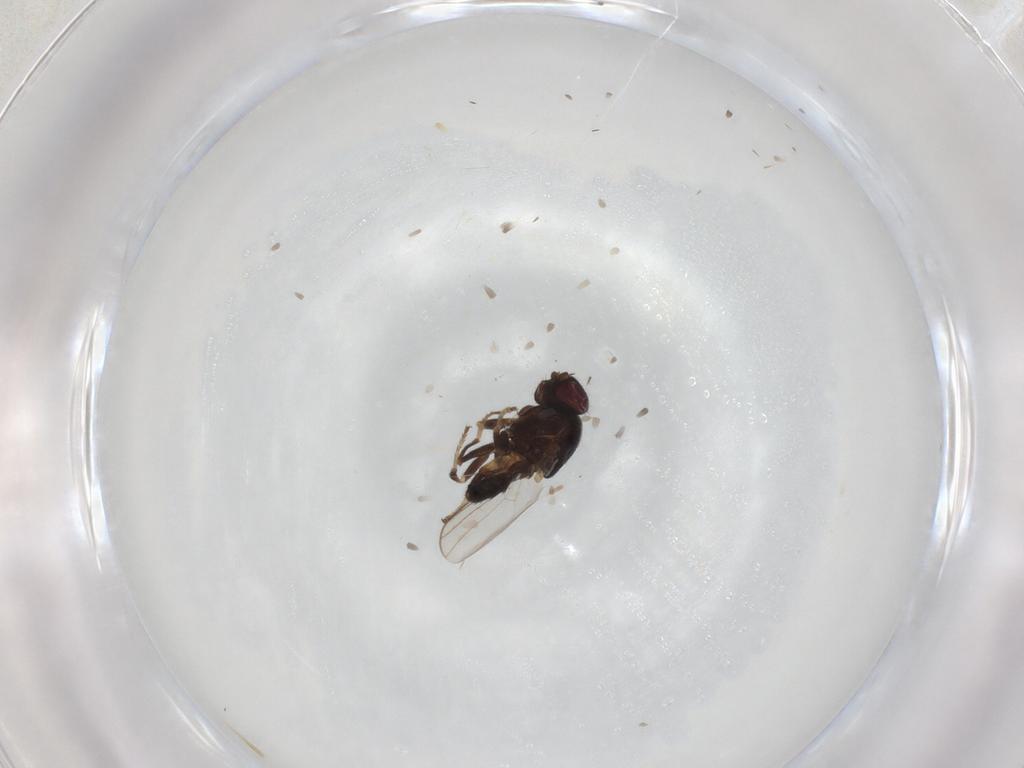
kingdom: Animalia
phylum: Arthropoda
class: Insecta
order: Diptera
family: Chloropidae
